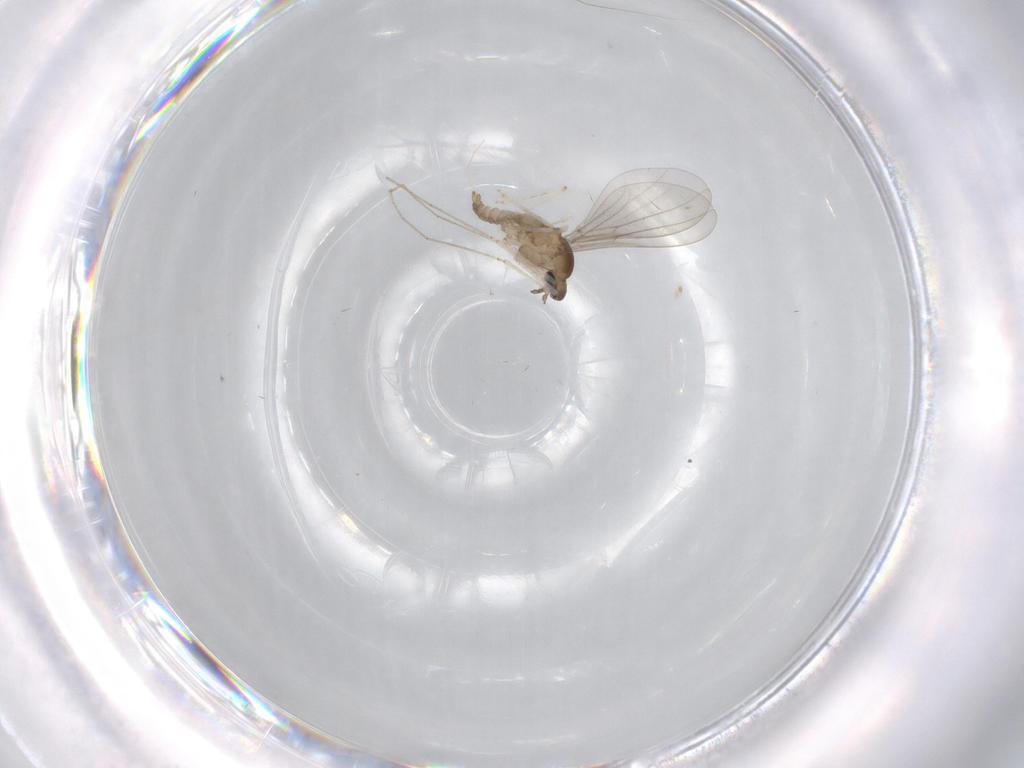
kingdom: Animalia
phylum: Arthropoda
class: Insecta
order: Diptera
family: Cecidomyiidae
